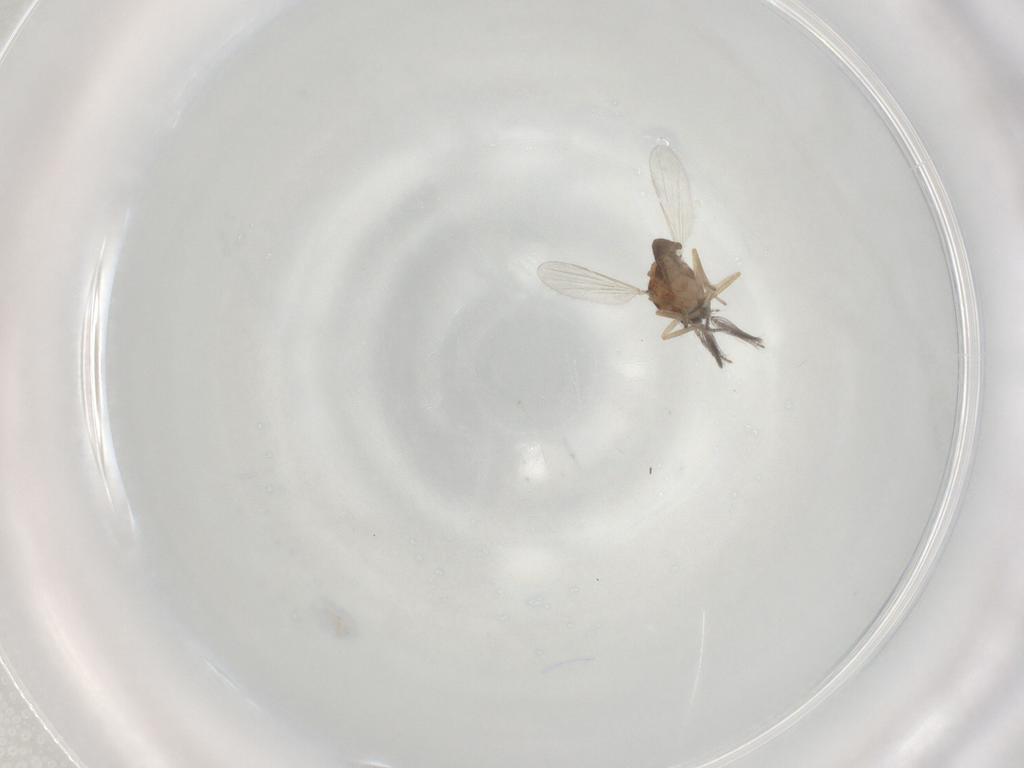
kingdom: Animalia
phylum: Arthropoda
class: Insecta
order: Diptera
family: Ceratopogonidae
